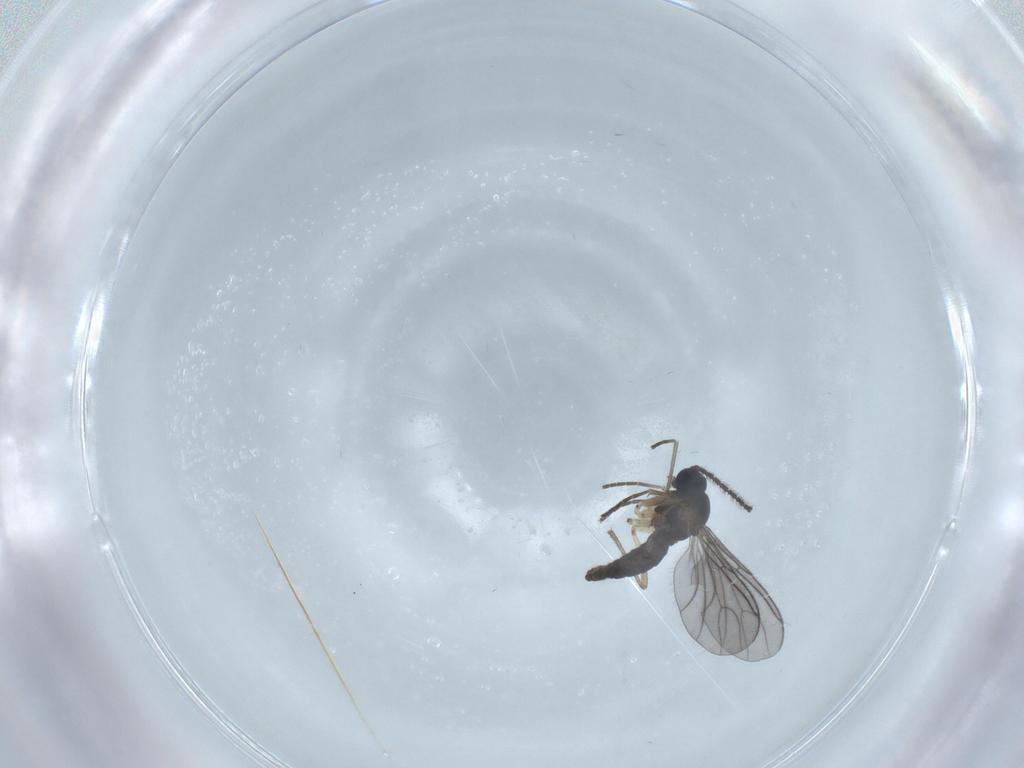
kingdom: Animalia
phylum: Arthropoda
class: Insecta
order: Diptera
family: Sciaridae
